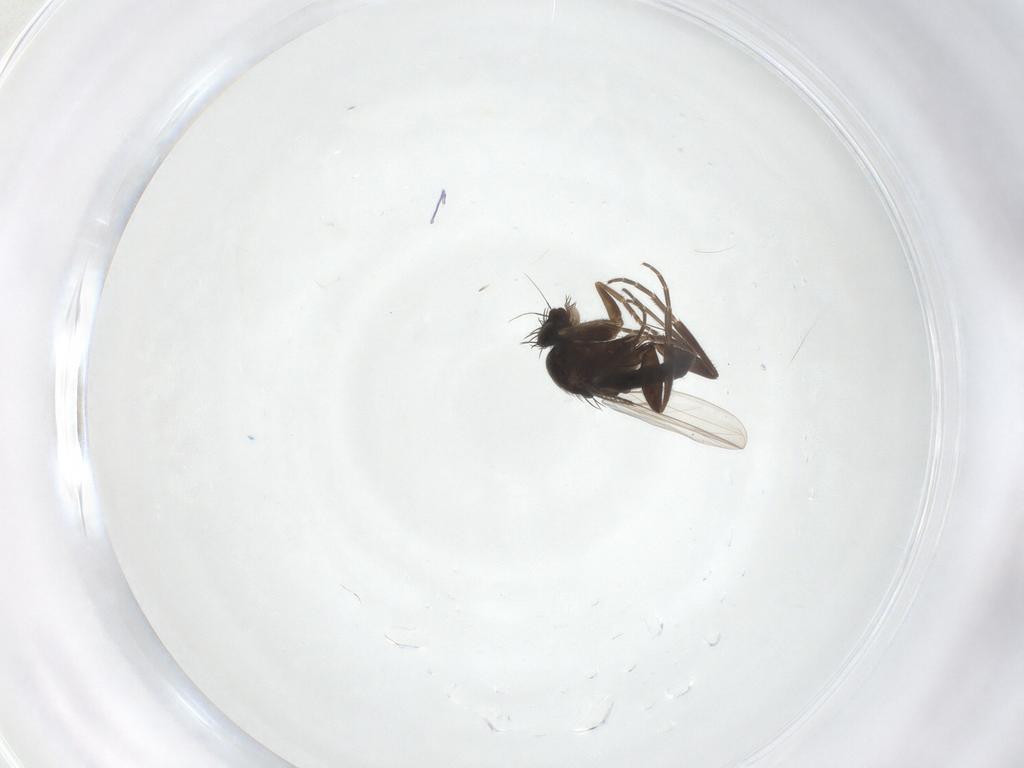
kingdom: Animalia
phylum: Arthropoda
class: Insecta
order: Diptera
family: Phoridae
